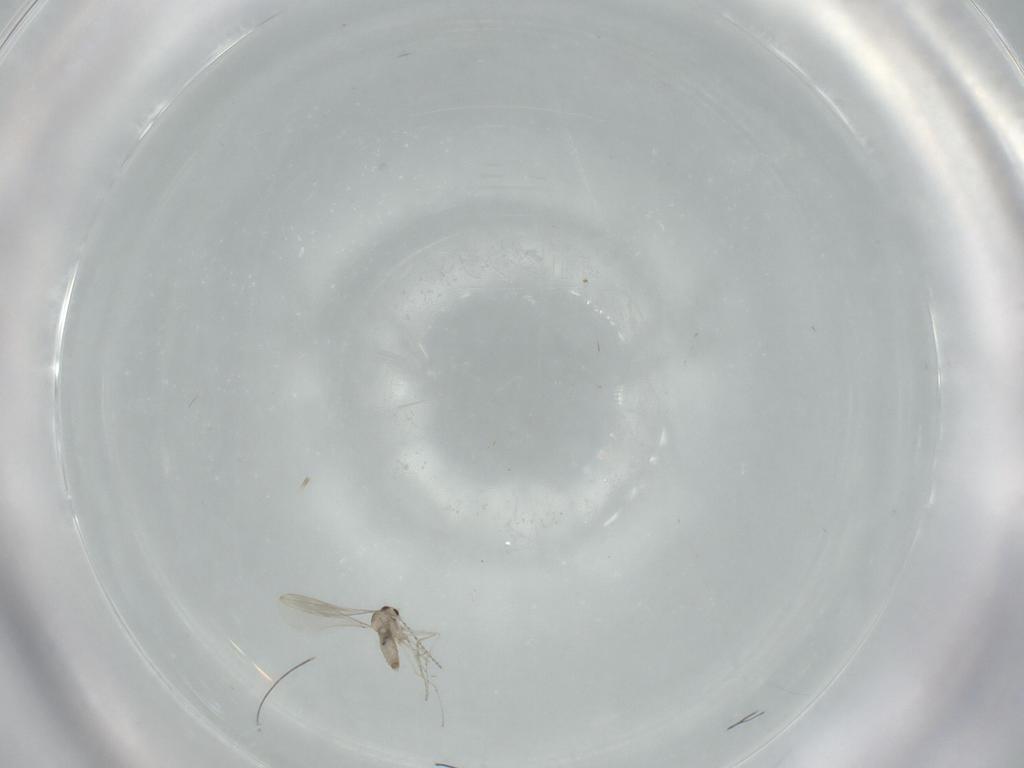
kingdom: Animalia
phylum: Arthropoda
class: Insecta
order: Diptera
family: Cecidomyiidae
